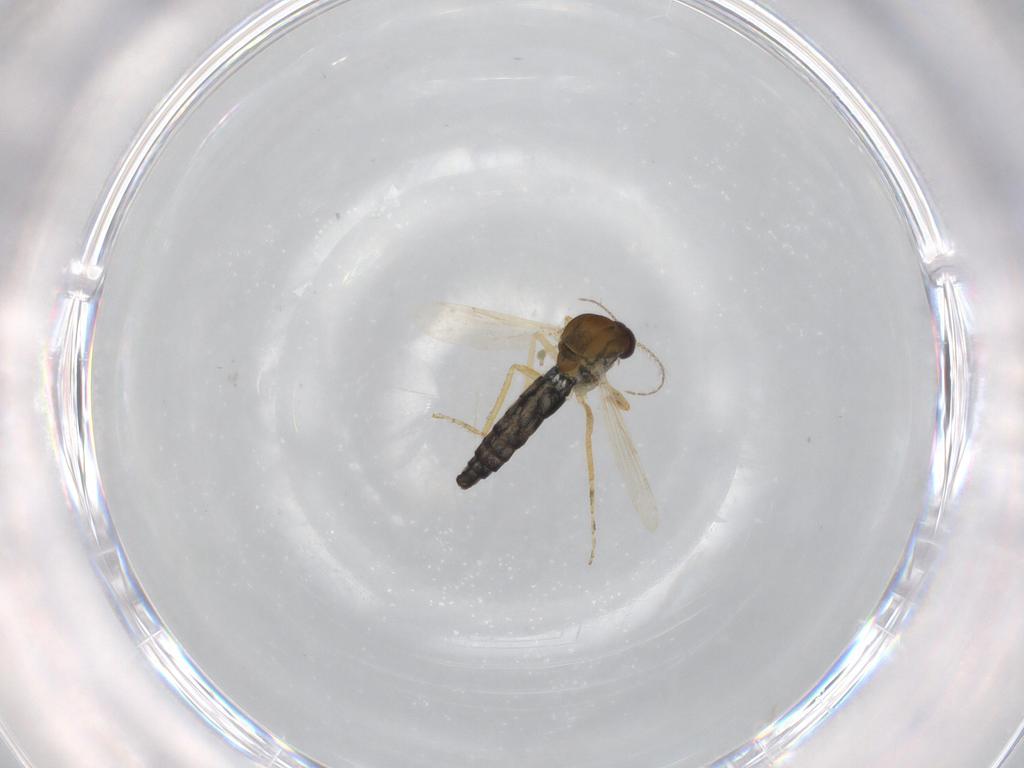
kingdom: Animalia
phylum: Arthropoda
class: Insecta
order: Diptera
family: Ceratopogonidae
